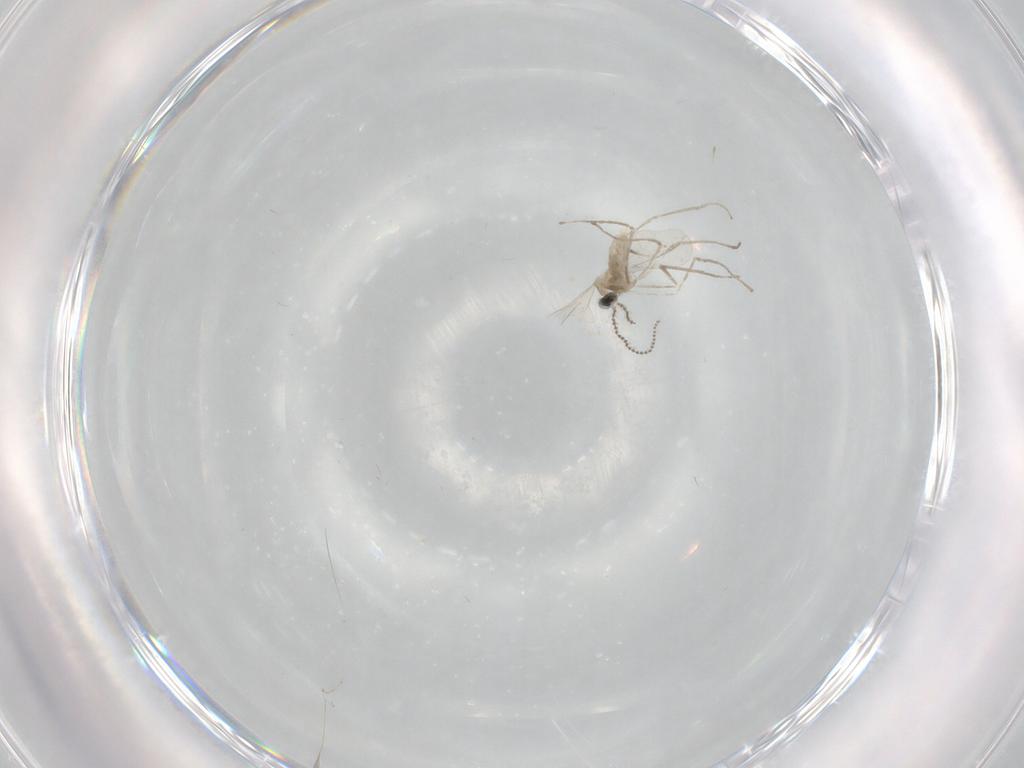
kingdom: Animalia
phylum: Arthropoda
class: Insecta
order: Diptera
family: Cecidomyiidae
